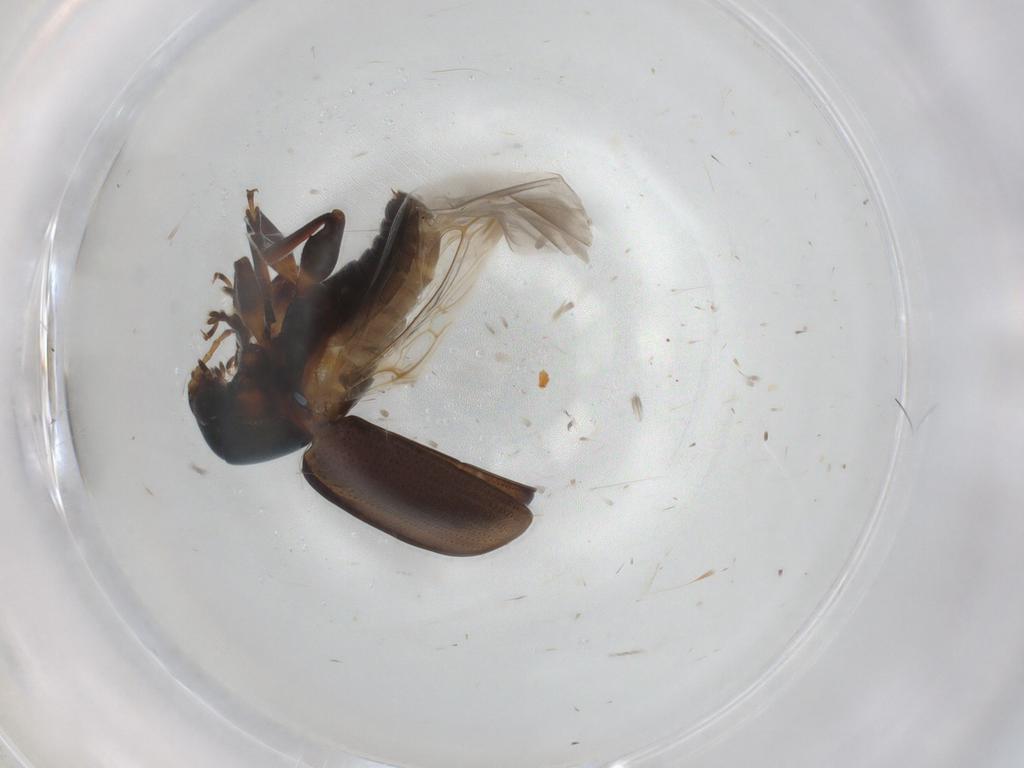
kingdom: Animalia
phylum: Arthropoda
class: Insecta
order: Coleoptera
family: Chrysomelidae
